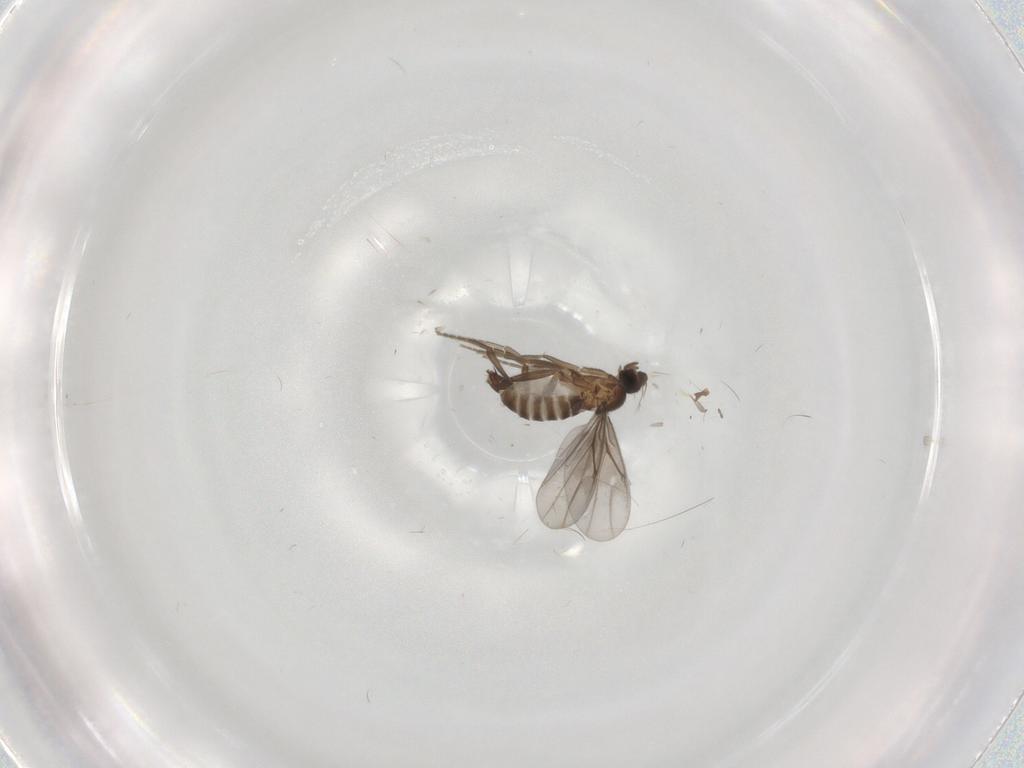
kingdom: Animalia
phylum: Arthropoda
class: Insecta
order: Diptera
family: Cecidomyiidae
